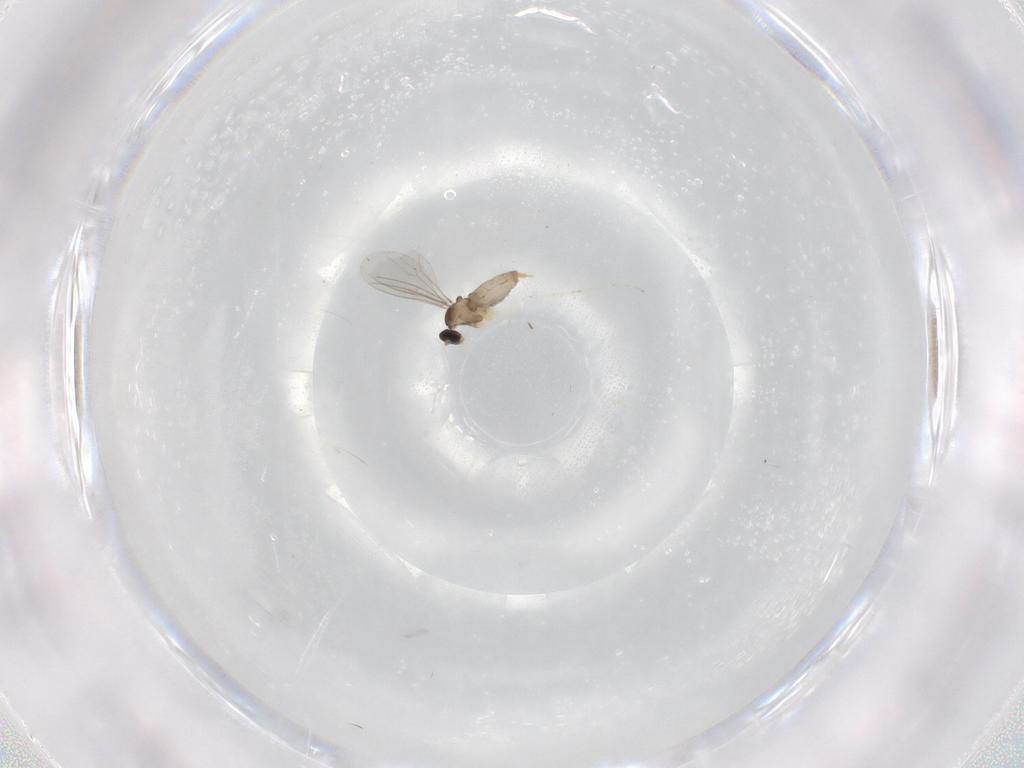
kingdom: Animalia
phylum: Arthropoda
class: Insecta
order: Diptera
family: Cecidomyiidae
